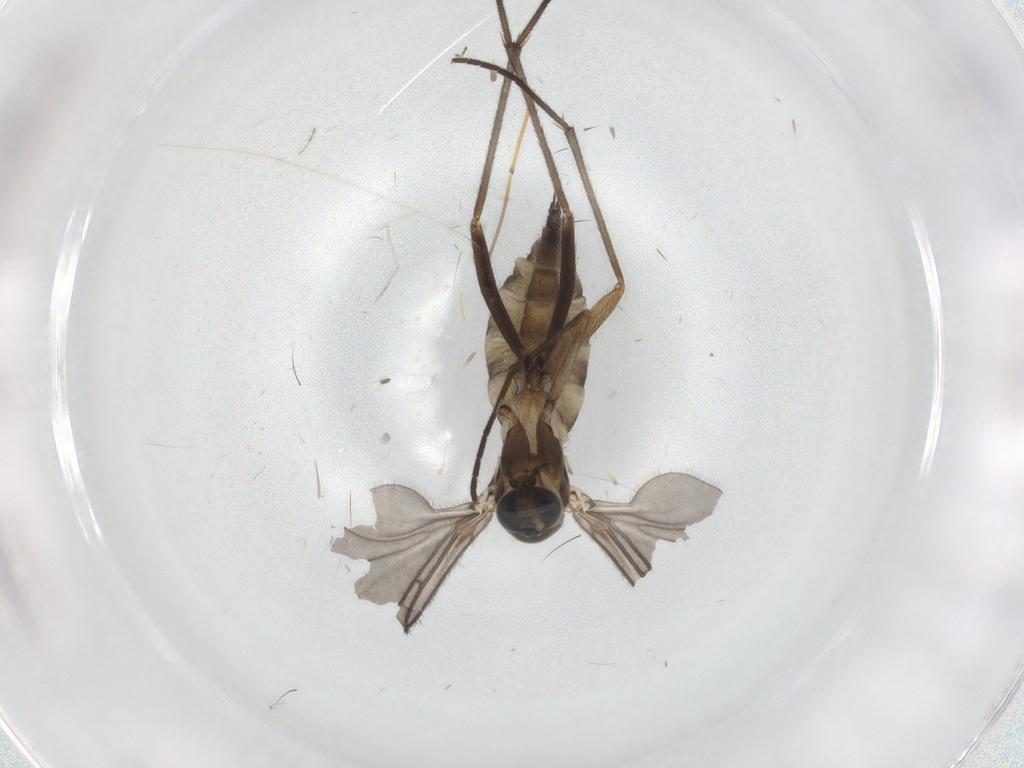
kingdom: Animalia
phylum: Arthropoda
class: Insecta
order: Diptera
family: Sciaridae
